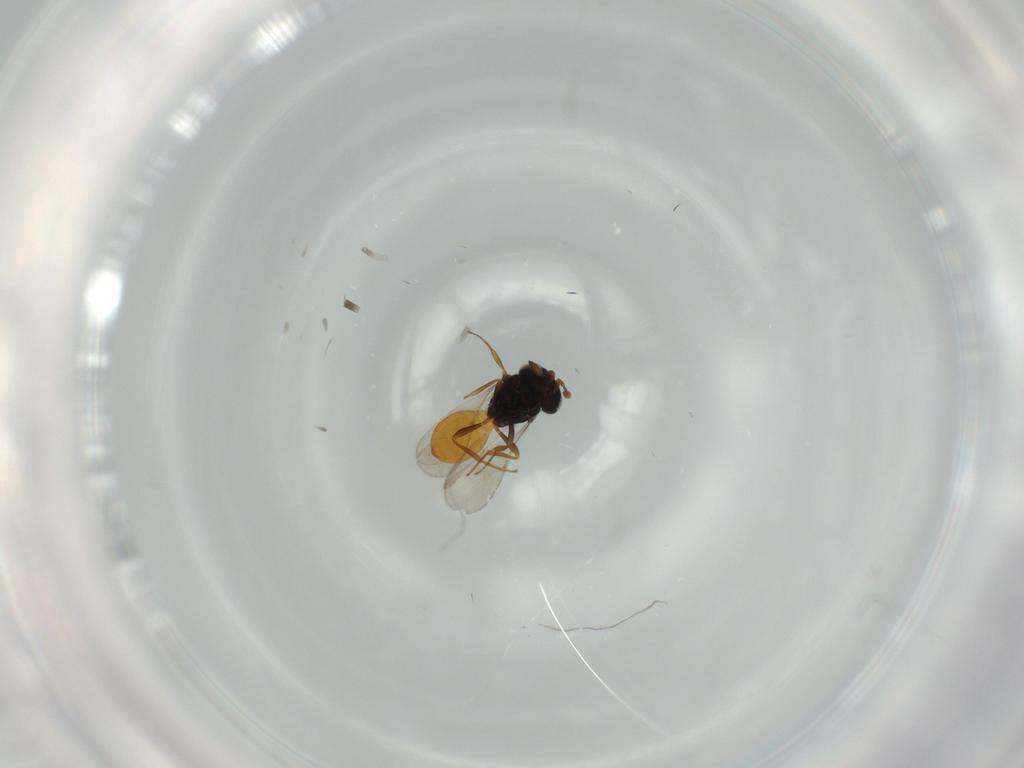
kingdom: Animalia
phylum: Arthropoda
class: Insecta
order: Hymenoptera
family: Scelionidae
